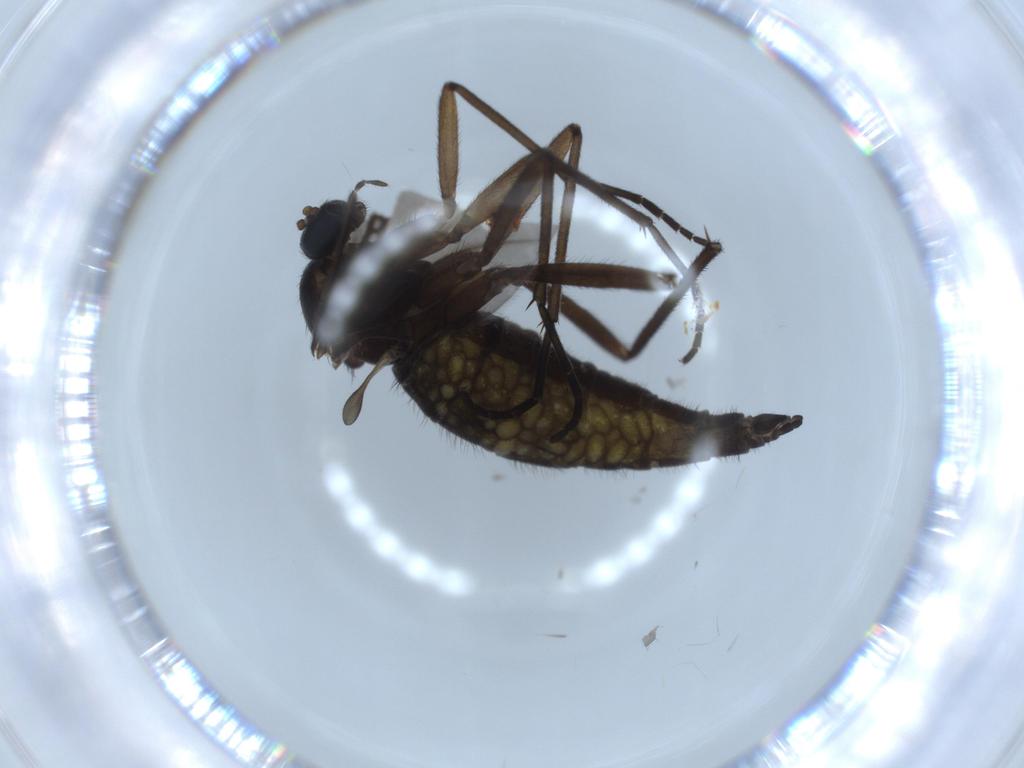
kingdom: Animalia
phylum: Arthropoda
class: Insecta
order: Diptera
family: Sciaridae
